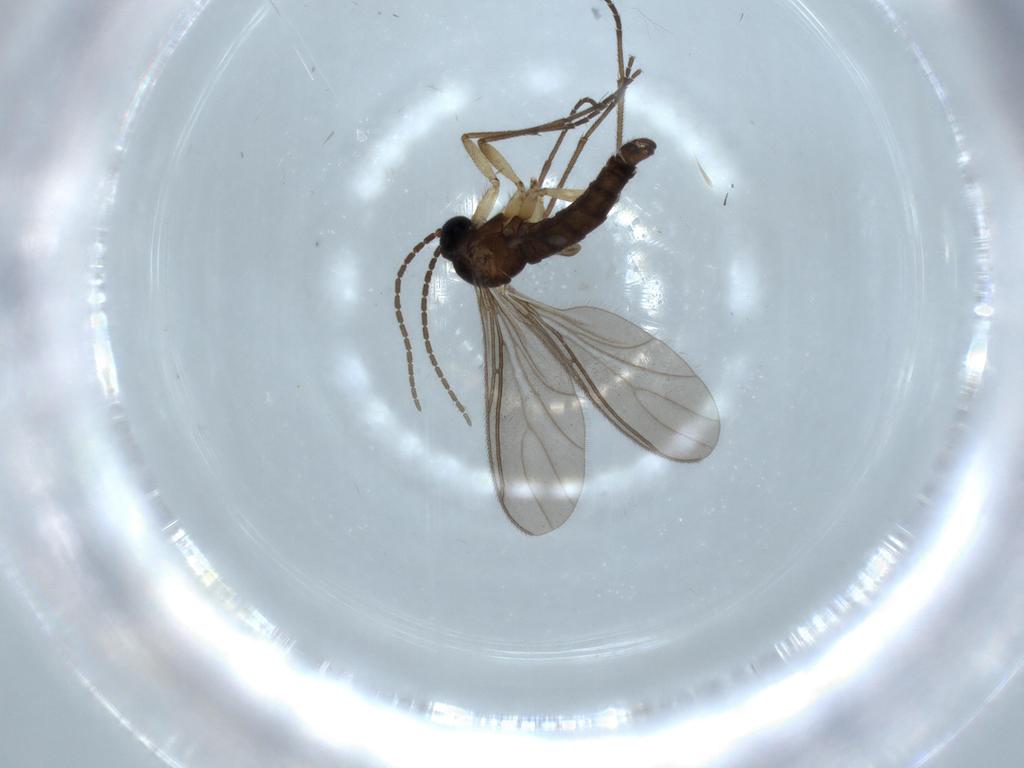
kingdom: Animalia
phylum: Arthropoda
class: Insecta
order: Diptera
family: Sciaridae
